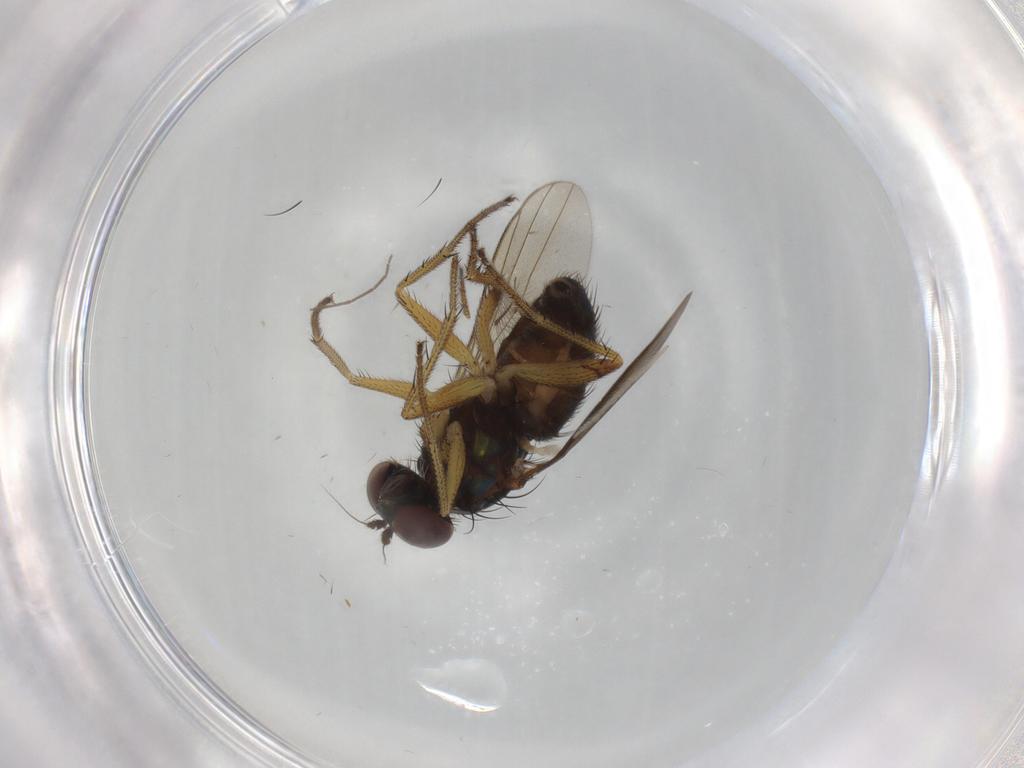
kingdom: Animalia
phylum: Arthropoda
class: Insecta
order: Diptera
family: Dolichopodidae
